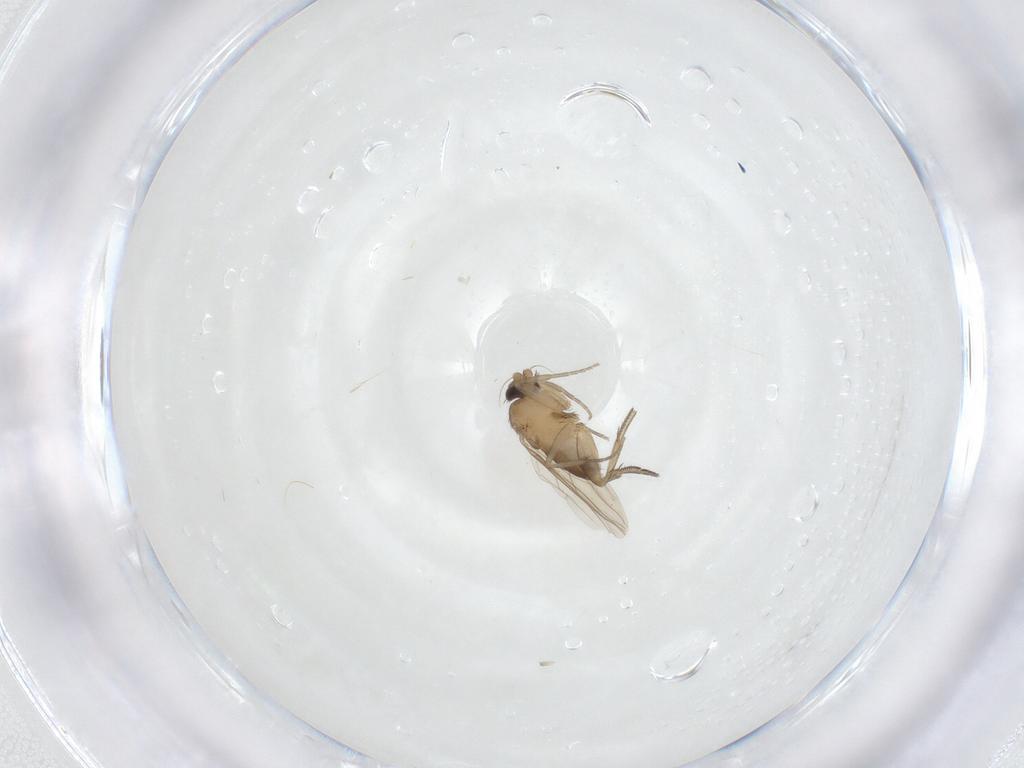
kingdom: Animalia
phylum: Arthropoda
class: Insecta
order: Diptera
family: Phoridae
